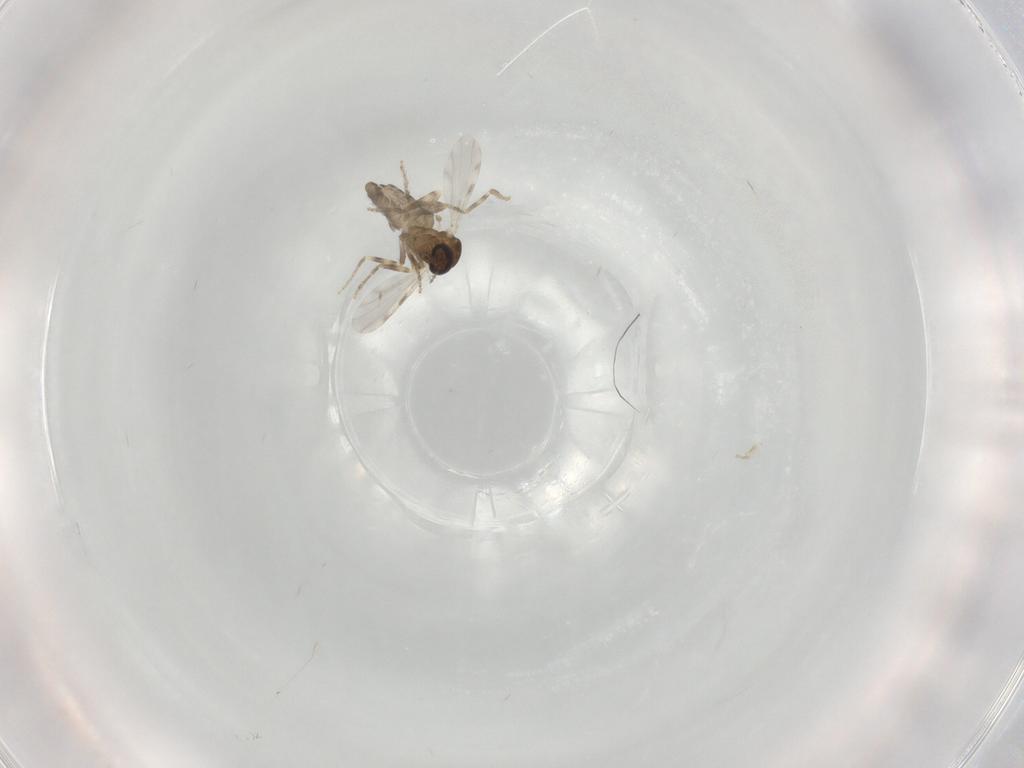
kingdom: Animalia
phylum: Arthropoda
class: Insecta
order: Diptera
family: Ceratopogonidae
